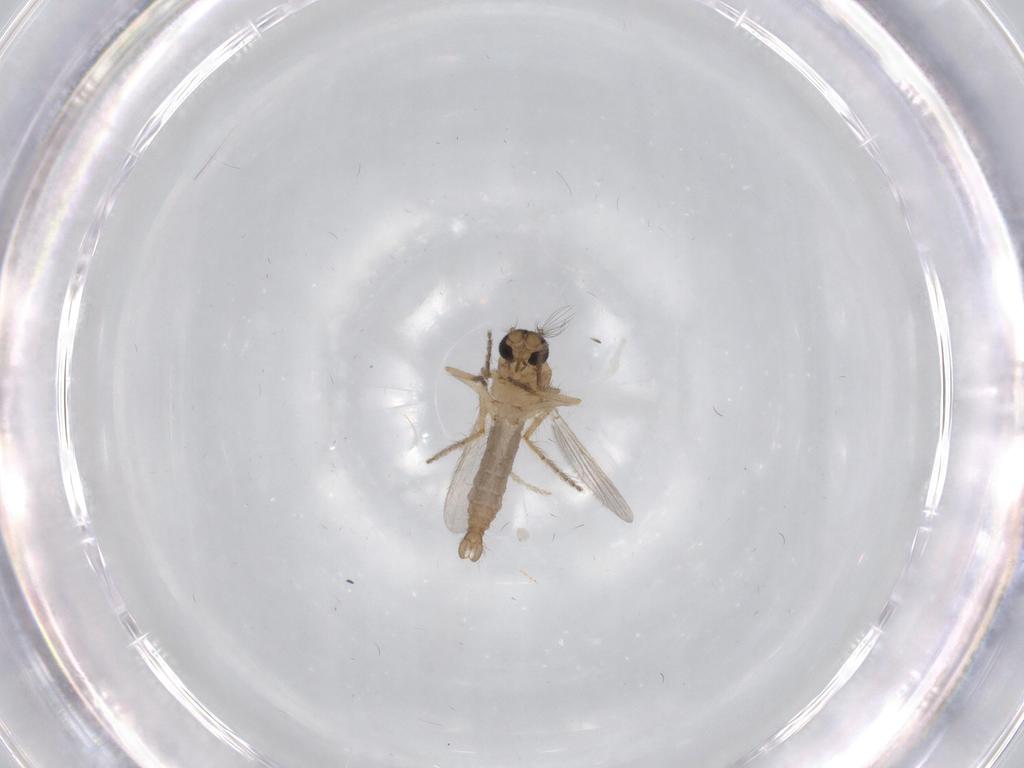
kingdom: Animalia
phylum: Arthropoda
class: Insecta
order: Diptera
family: Ceratopogonidae
